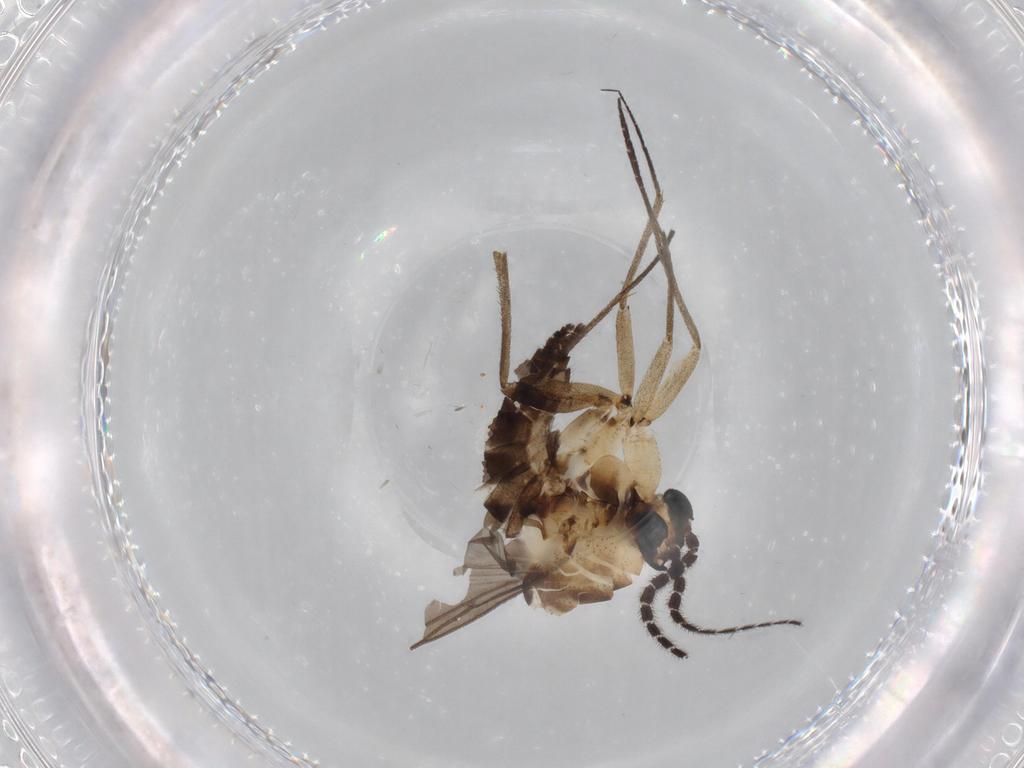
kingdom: Animalia
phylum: Arthropoda
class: Insecta
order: Diptera
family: Sciaridae
